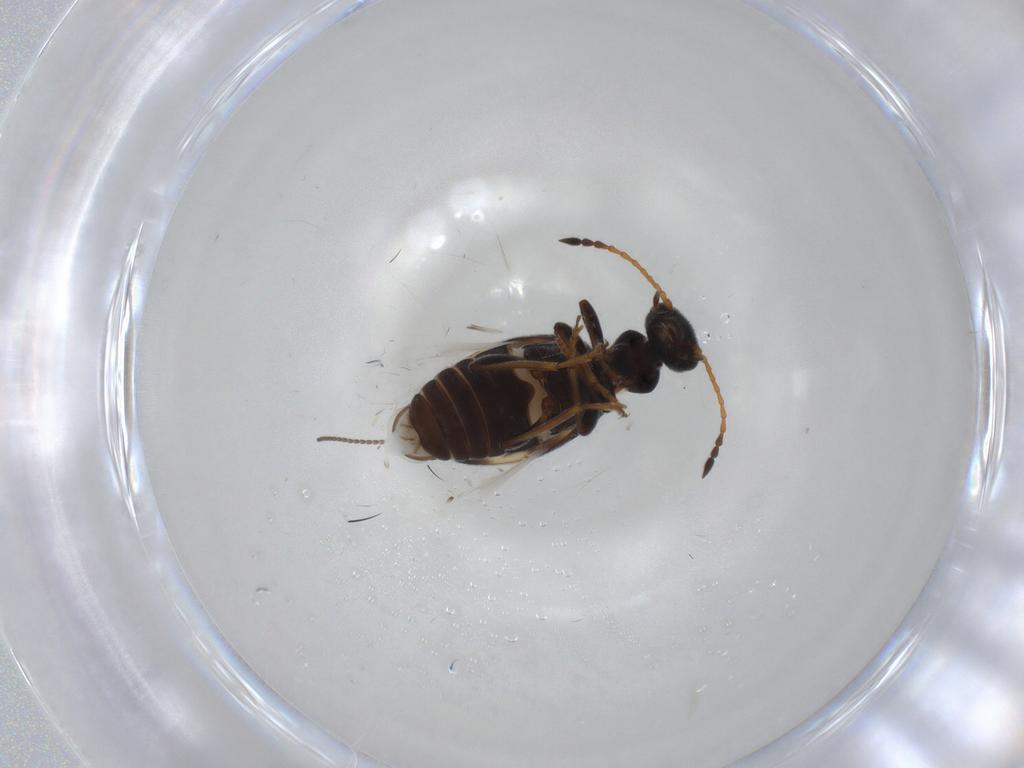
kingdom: Animalia
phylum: Arthropoda
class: Insecta
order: Coleoptera
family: Anthicidae
